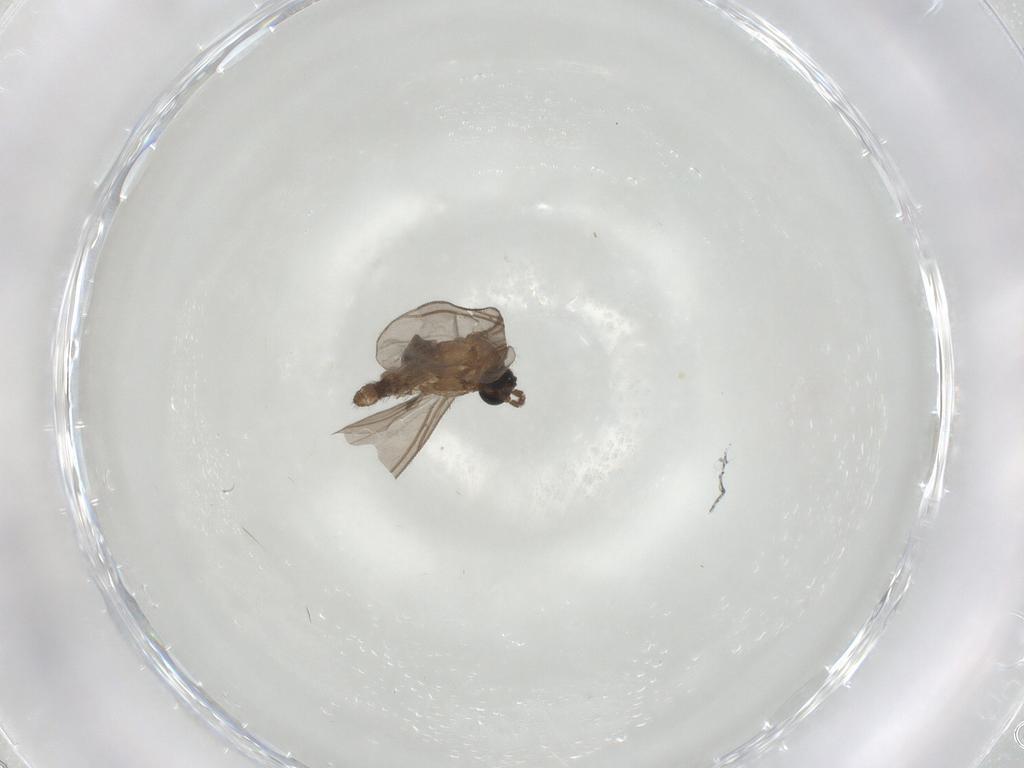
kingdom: Animalia
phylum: Arthropoda
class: Insecta
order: Diptera
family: Sciaridae
